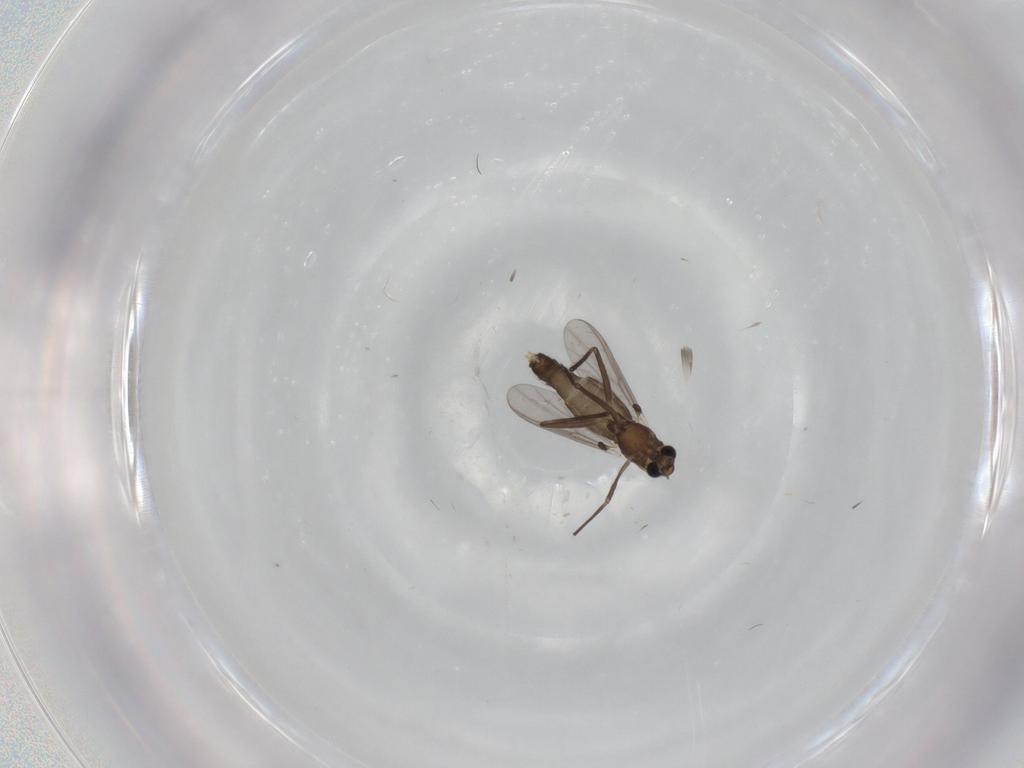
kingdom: Animalia
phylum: Arthropoda
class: Insecta
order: Diptera
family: Chironomidae
